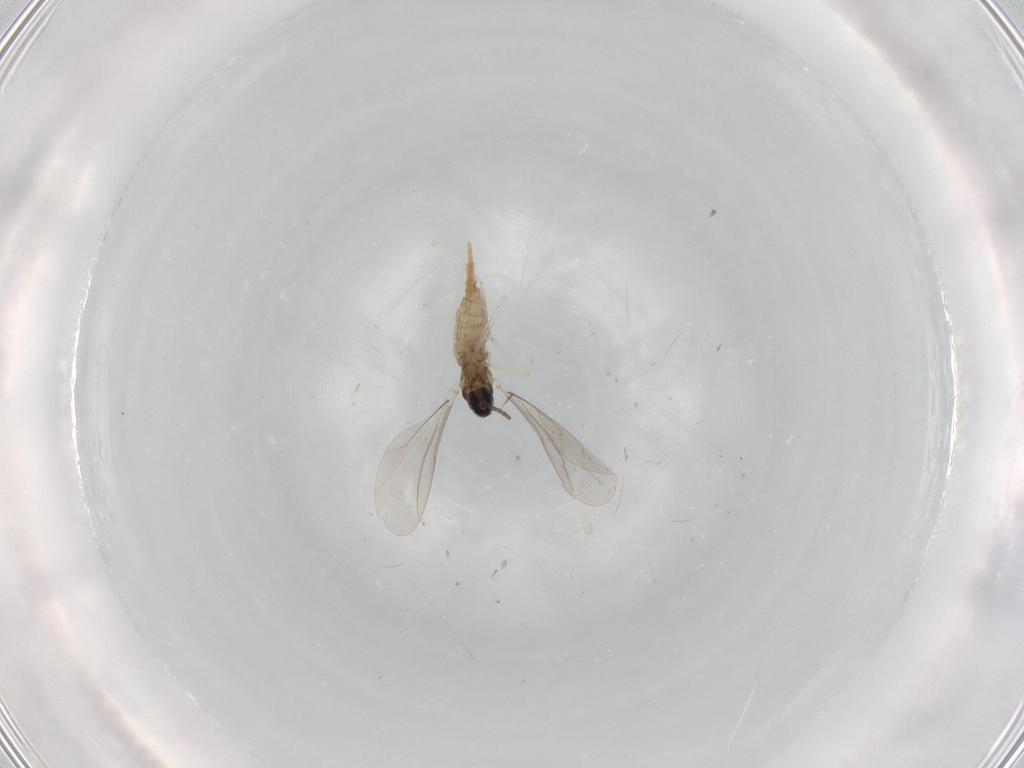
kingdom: Animalia
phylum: Arthropoda
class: Insecta
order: Diptera
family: Cecidomyiidae
